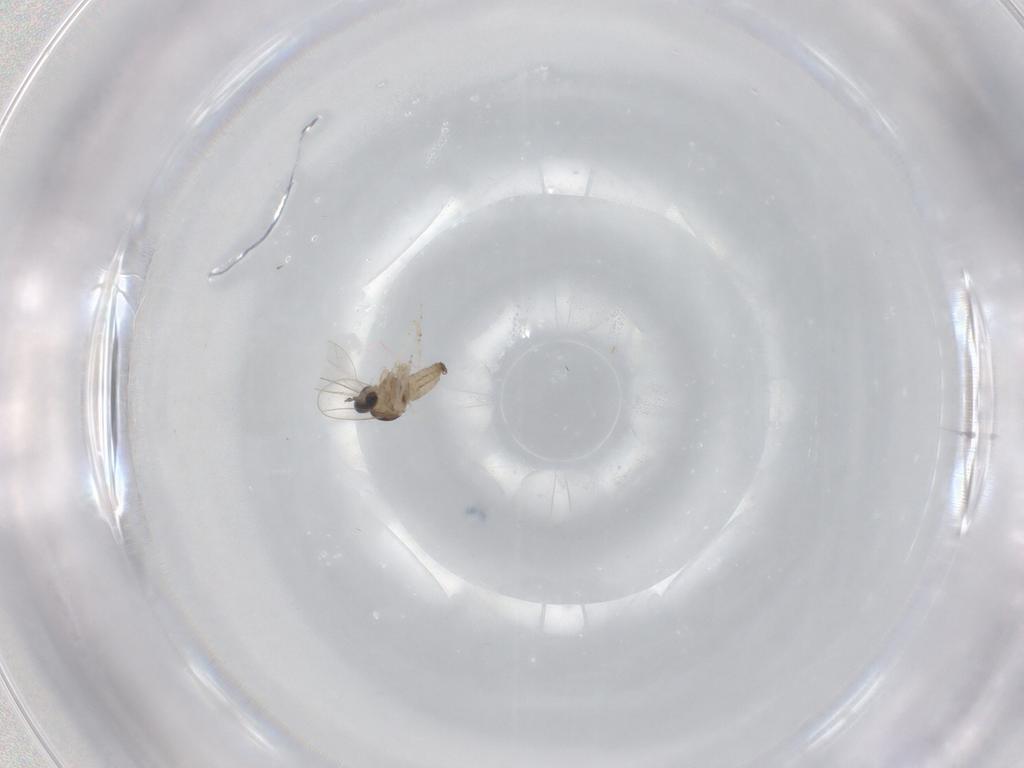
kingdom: Animalia
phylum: Arthropoda
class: Insecta
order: Diptera
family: Cecidomyiidae
